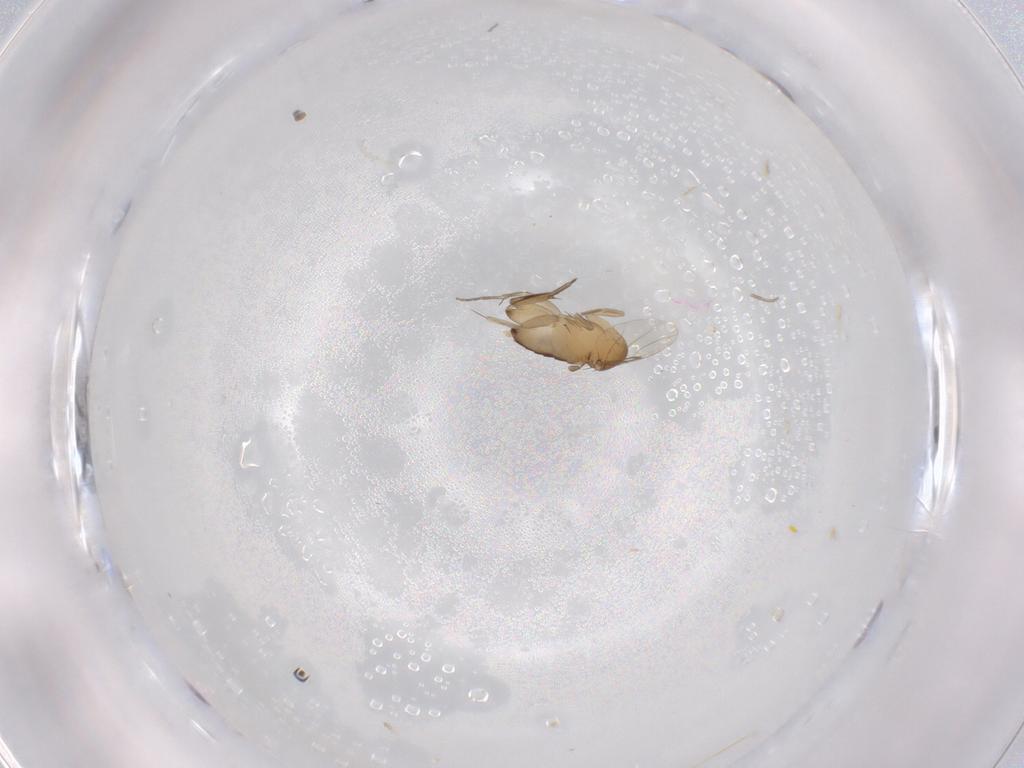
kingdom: Animalia
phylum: Arthropoda
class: Insecta
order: Diptera
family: Phoridae
